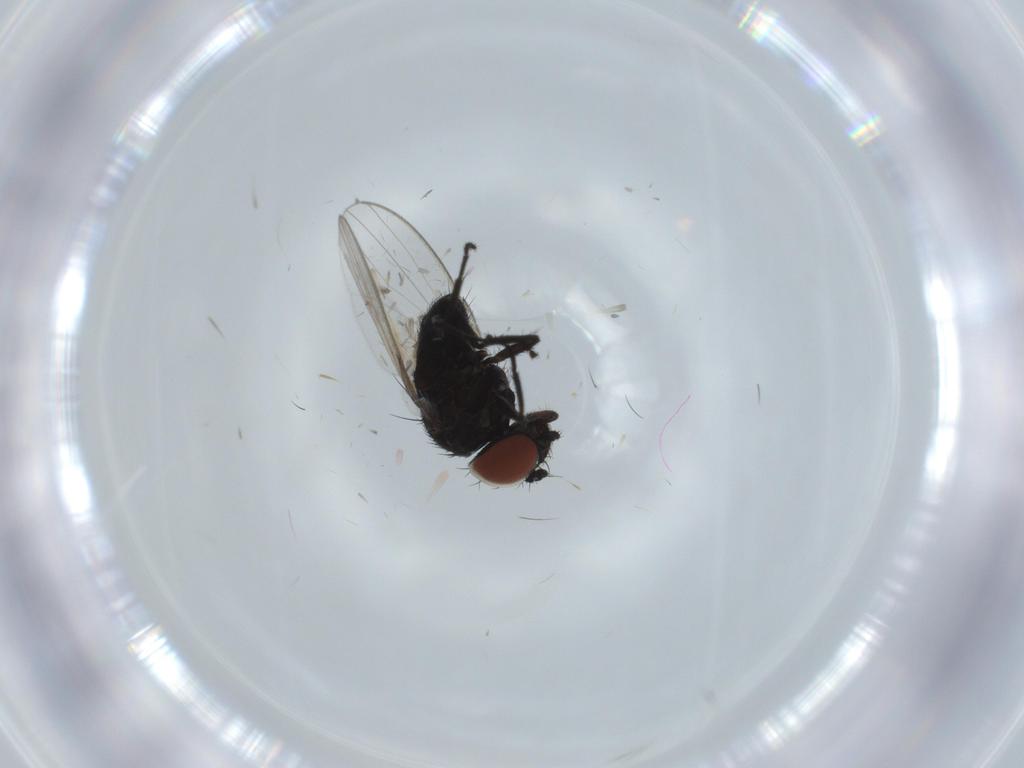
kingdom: Animalia
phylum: Arthropoda
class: Insecta
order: Diptera
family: Milichiidae
